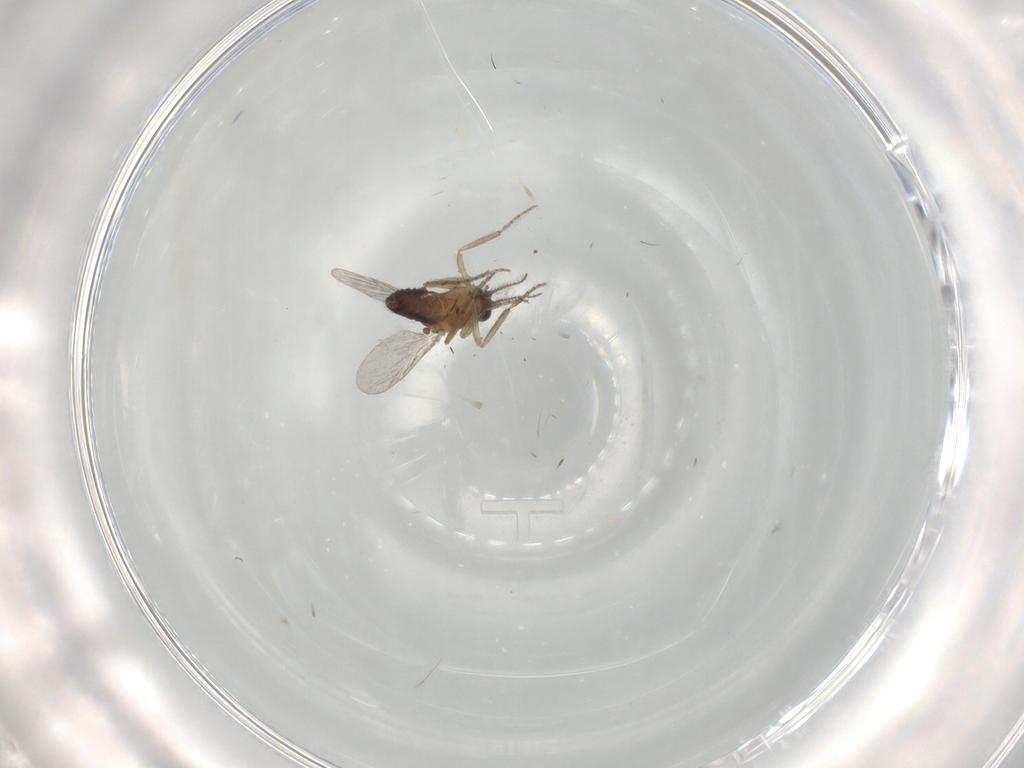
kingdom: Animalia
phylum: Arthropoda
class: Insecta
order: Diptera
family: Ceratopogonidae
